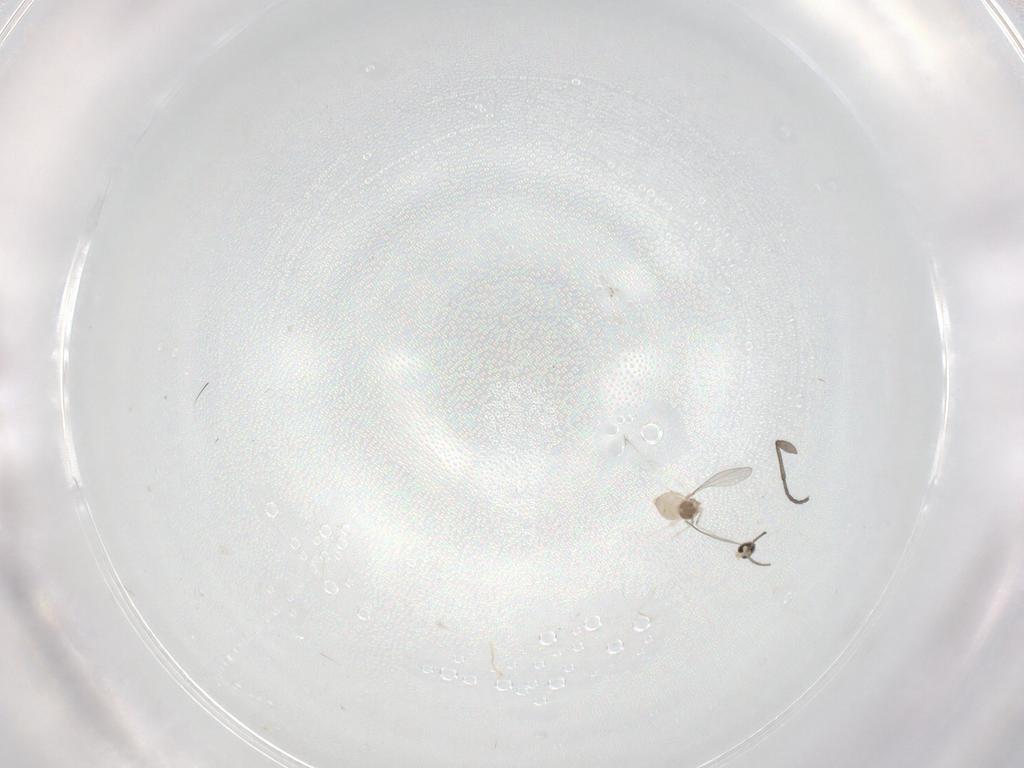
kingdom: Animalia
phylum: Arthropoda
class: Insecta
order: Diptera
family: Cecidomyiidae
